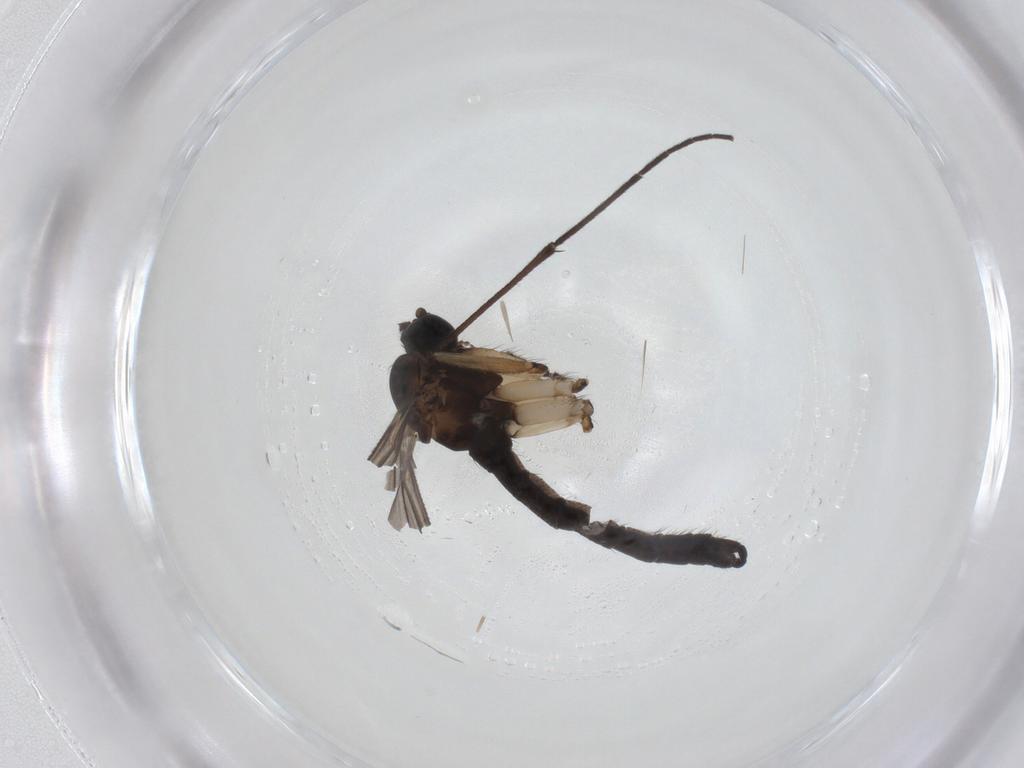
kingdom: Animalia
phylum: Arthropoda
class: Insecta
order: Diptera
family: Sciaridae
